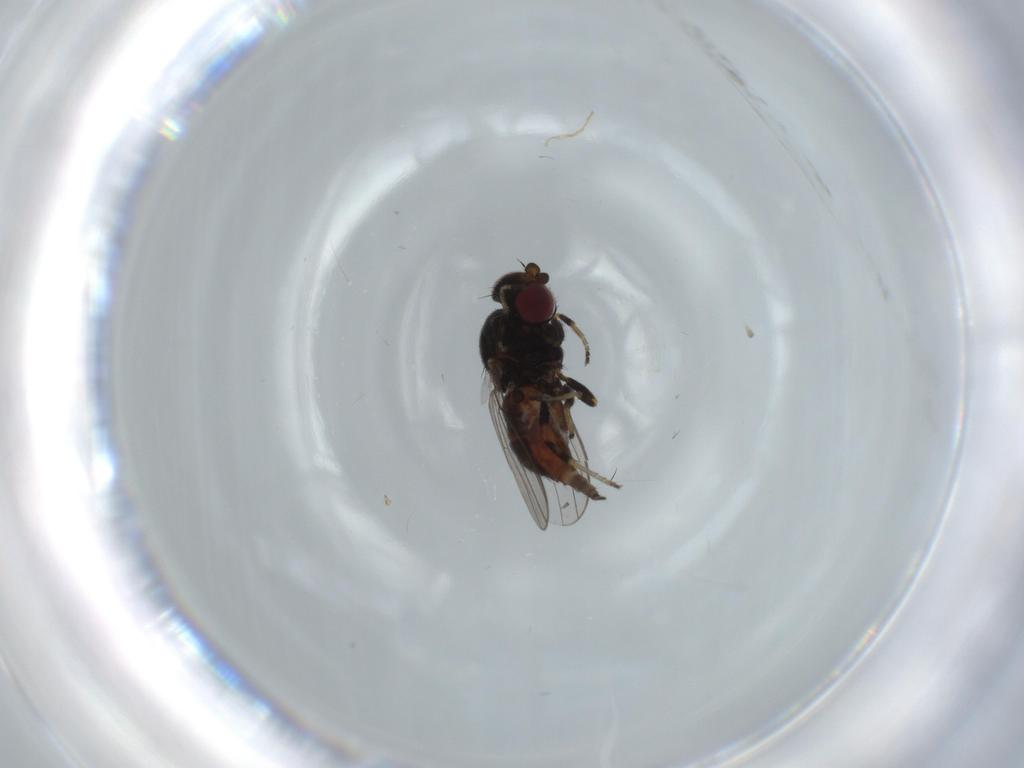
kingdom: Animalia
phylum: Arthropoda
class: Insecta
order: Diptera
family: Chloropidae
